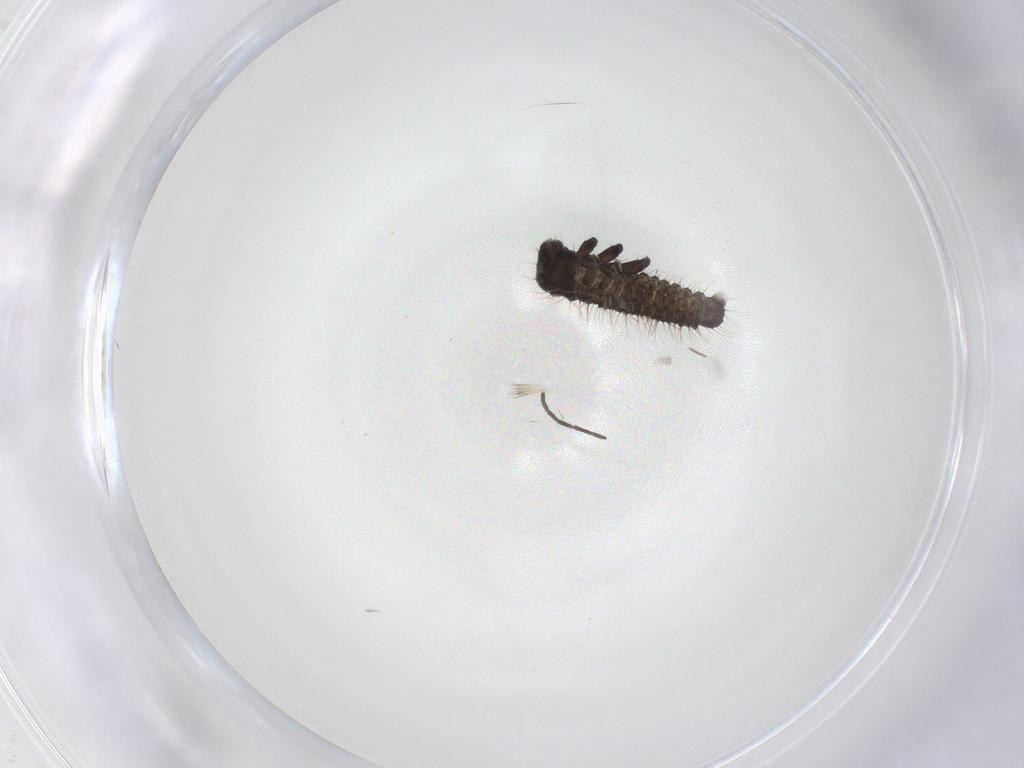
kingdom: Animalia
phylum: Arthropoda
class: Insecta
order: Coleoptera
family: Chrysomelidae
